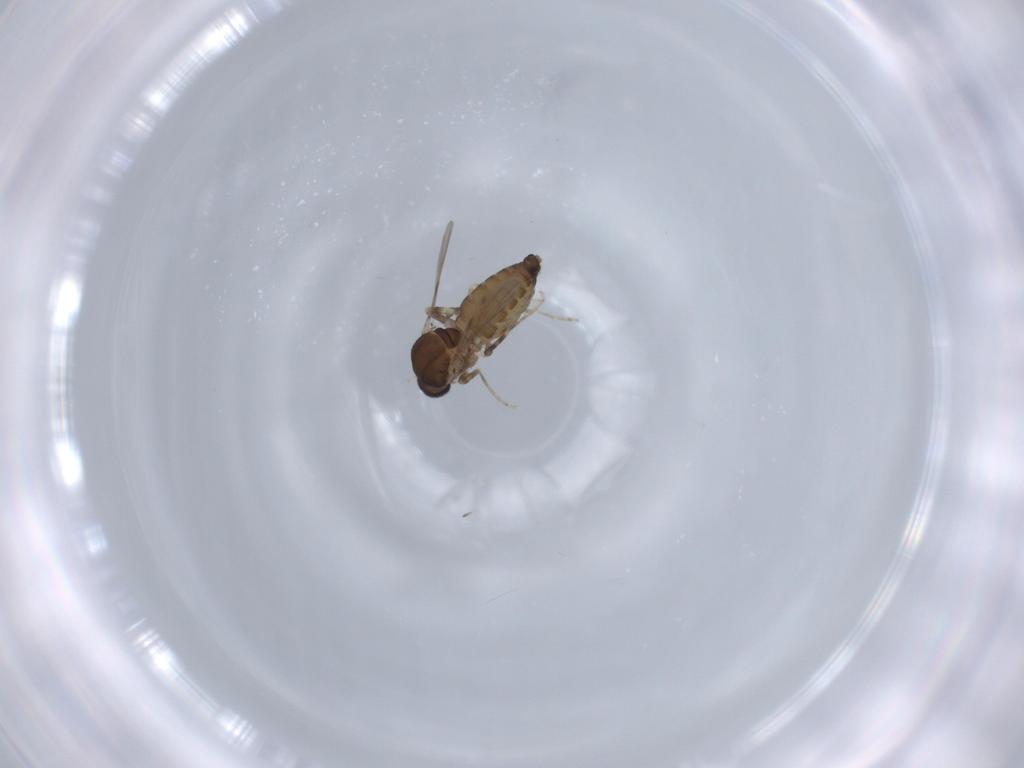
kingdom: Animalia
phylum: Arthropoda
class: Insecta
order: Diptera
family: Ceratopogonidae
